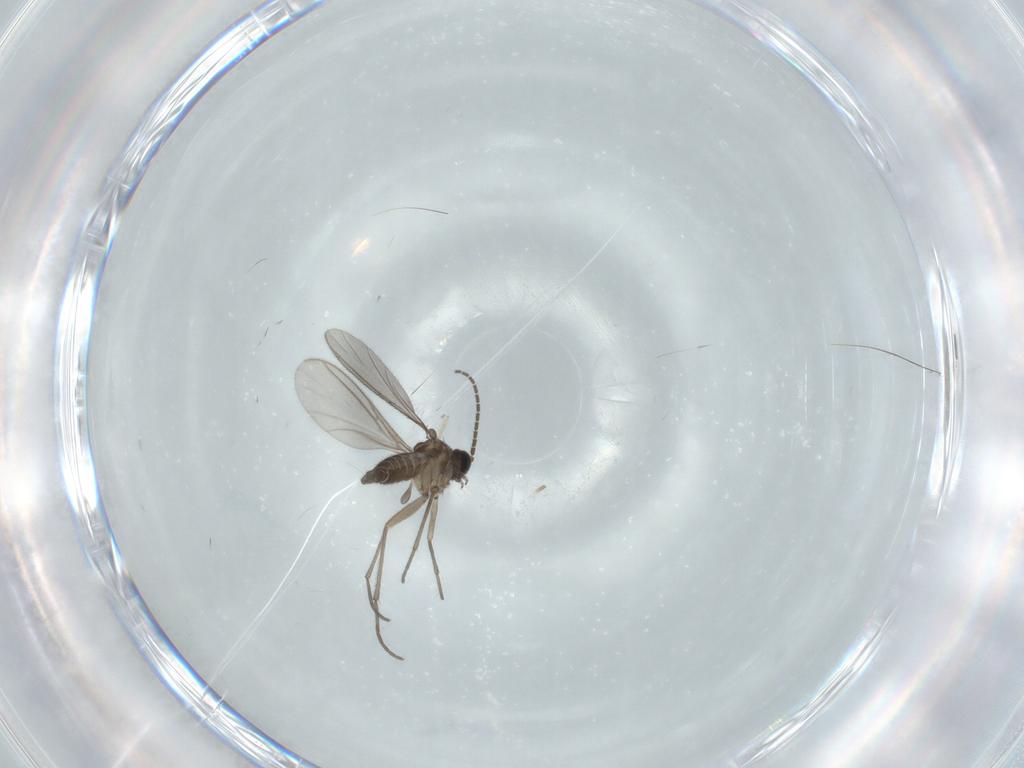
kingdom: Animalia
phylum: Arthropoda
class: Insecta
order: Diptera
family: Sciaridae
